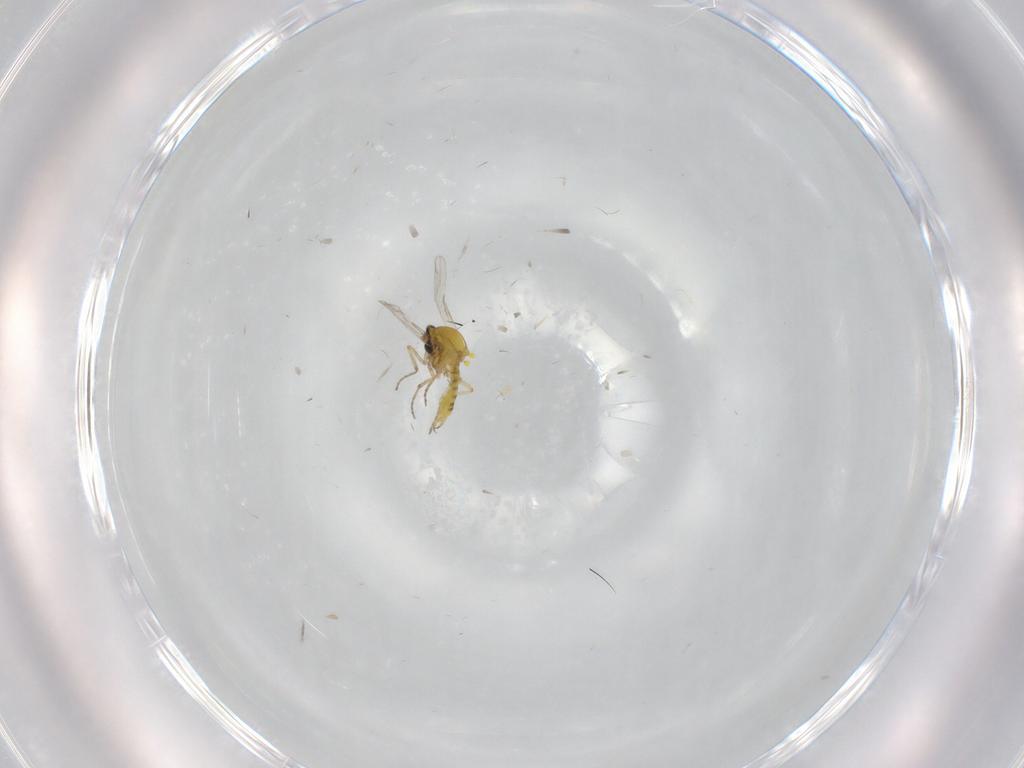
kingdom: Animalia
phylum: Arthropoda
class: Insecta
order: Diptera
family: Ceratopogonidae
